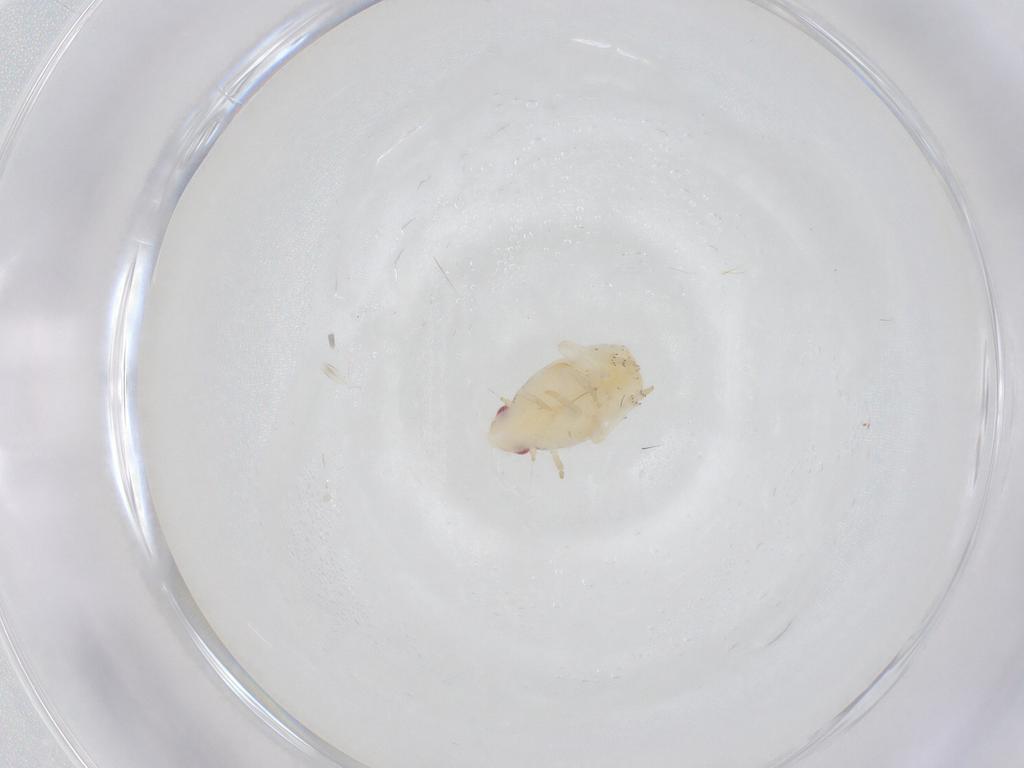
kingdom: Animalia
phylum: Arthropoda
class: Insecta
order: Hemiptera
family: Flatidae
